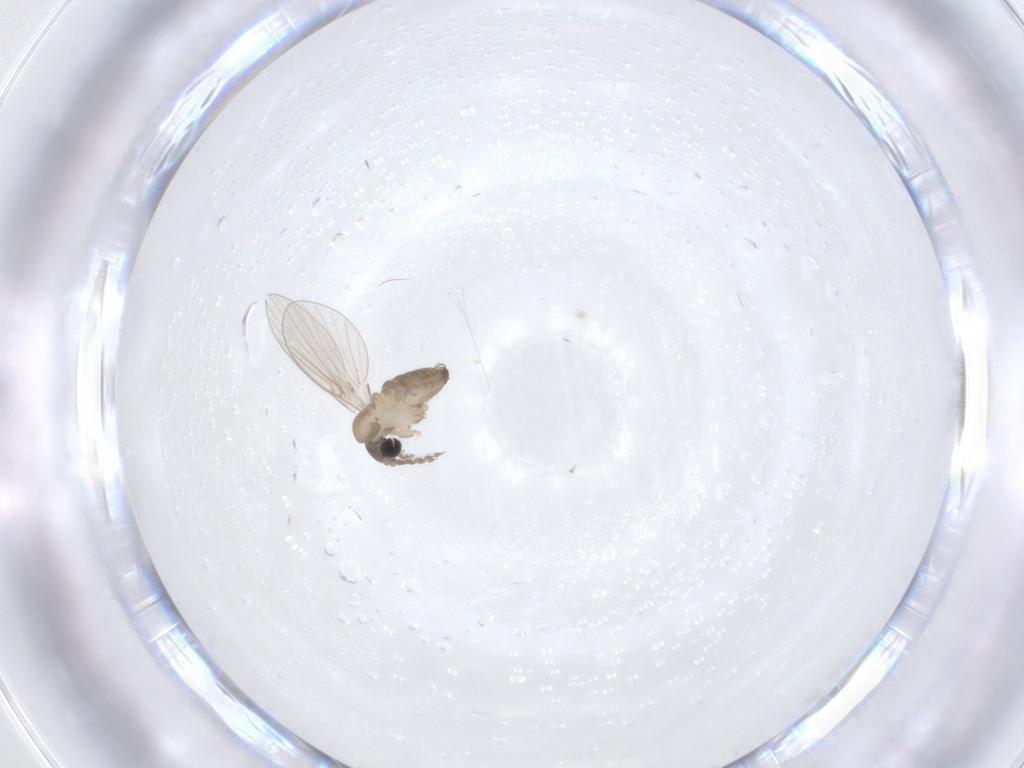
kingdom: Animalia
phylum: Arthropoda
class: Insecta
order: Diptera
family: Psychodidae
